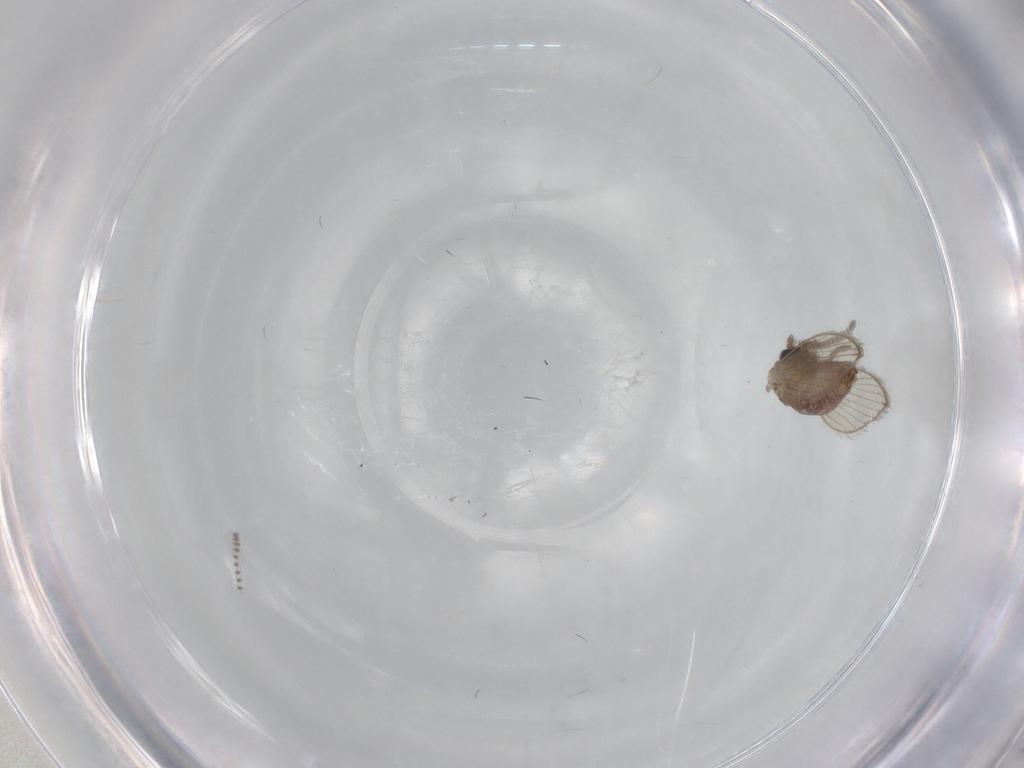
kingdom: Animalia
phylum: Arthropoda
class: Insecta
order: Diptera
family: Psychodidae
